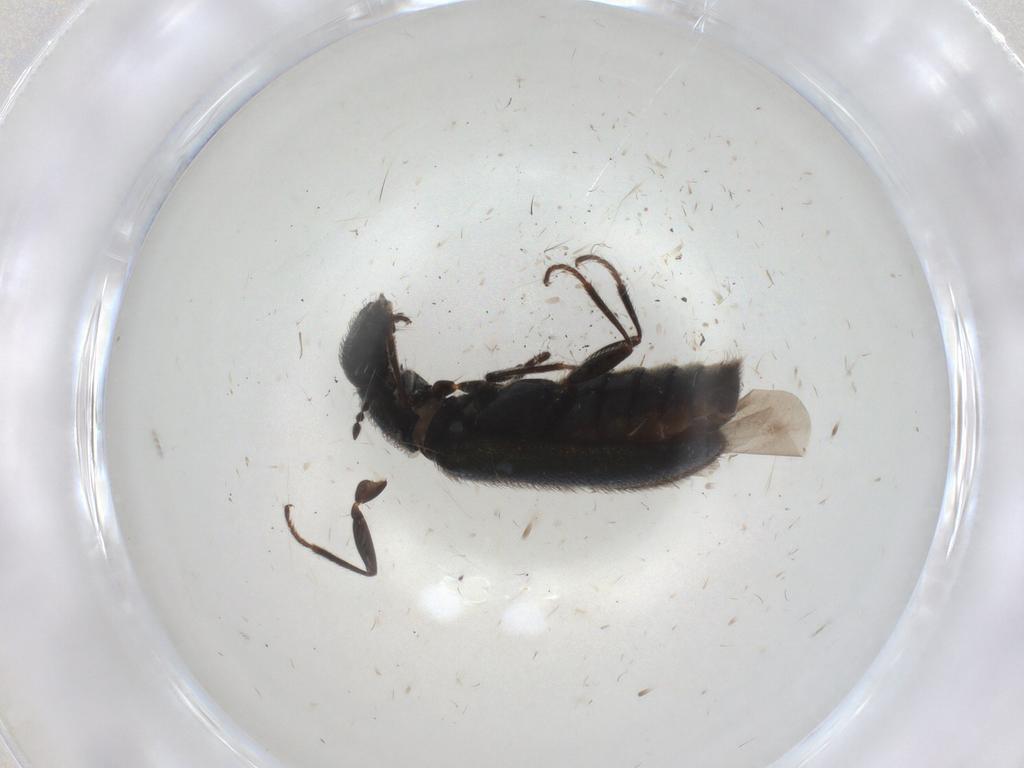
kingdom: Animalia
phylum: Arthropoda
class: Insecta
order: Coleoptera
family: Melyridae
